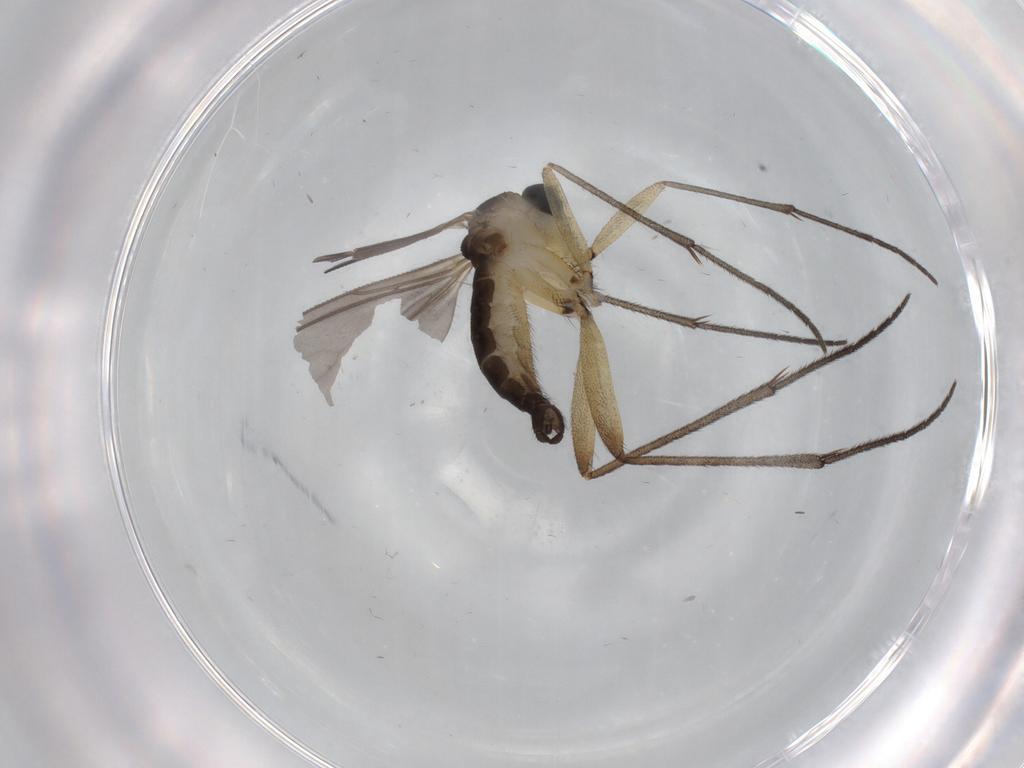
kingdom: Animalia
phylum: Arthropoda
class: Insecta
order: Diptera
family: Sciaridae
